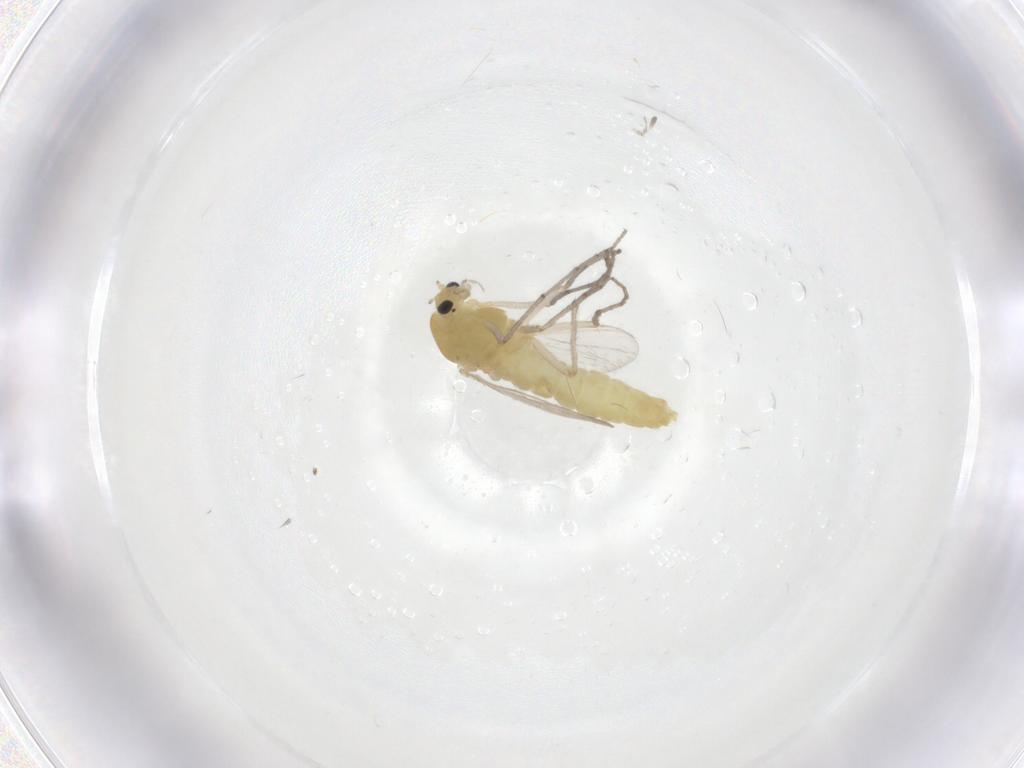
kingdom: Animalia
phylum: Arthropoda
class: Insecta
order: Diptera
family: Chironomidae
